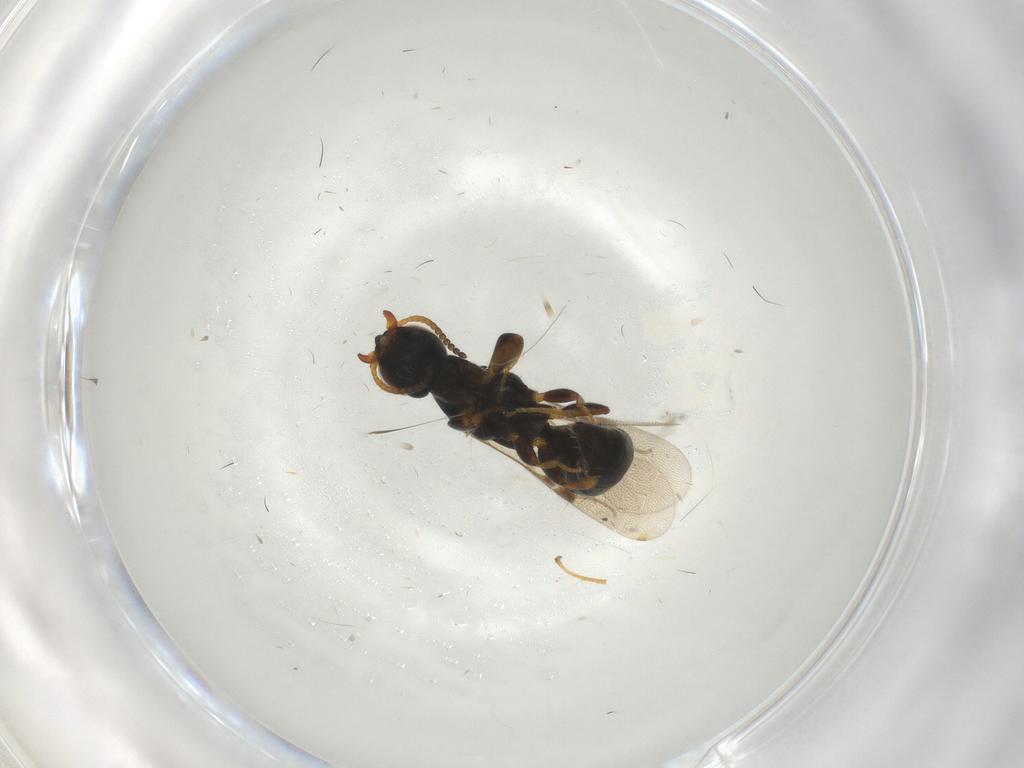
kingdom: Animalia
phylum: Arthropoda
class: Insecta
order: Hymenoptera
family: Bethylidae
